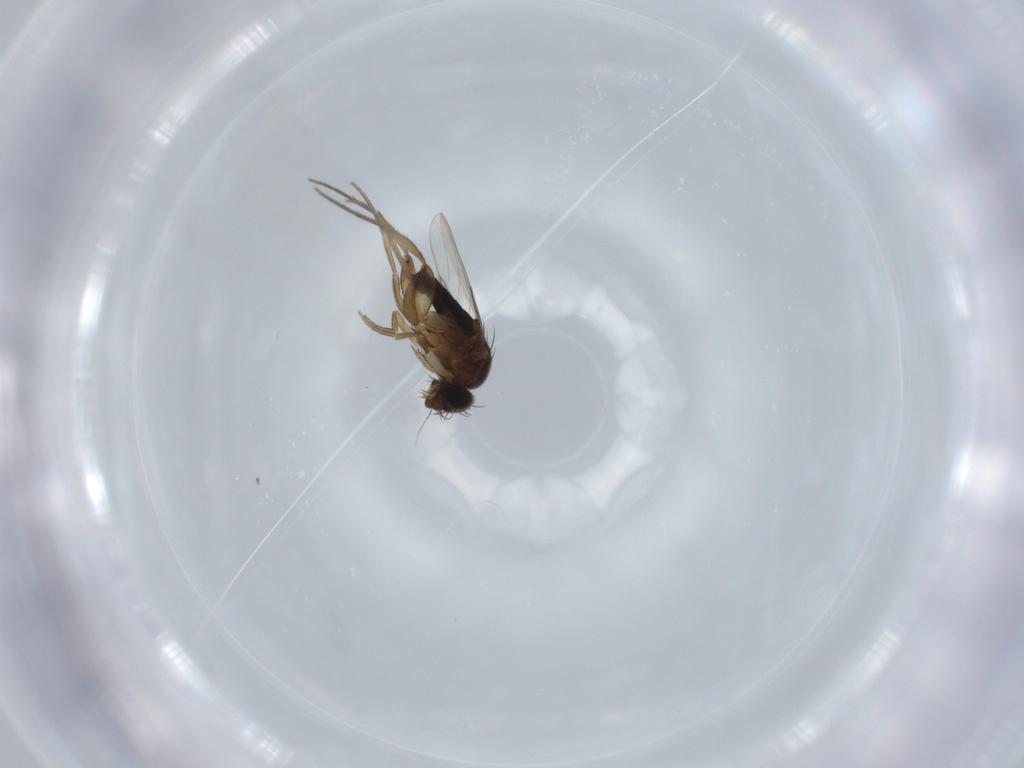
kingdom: Animalia
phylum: Arthropoda
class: Insecta
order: Diptera
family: Phoridae
